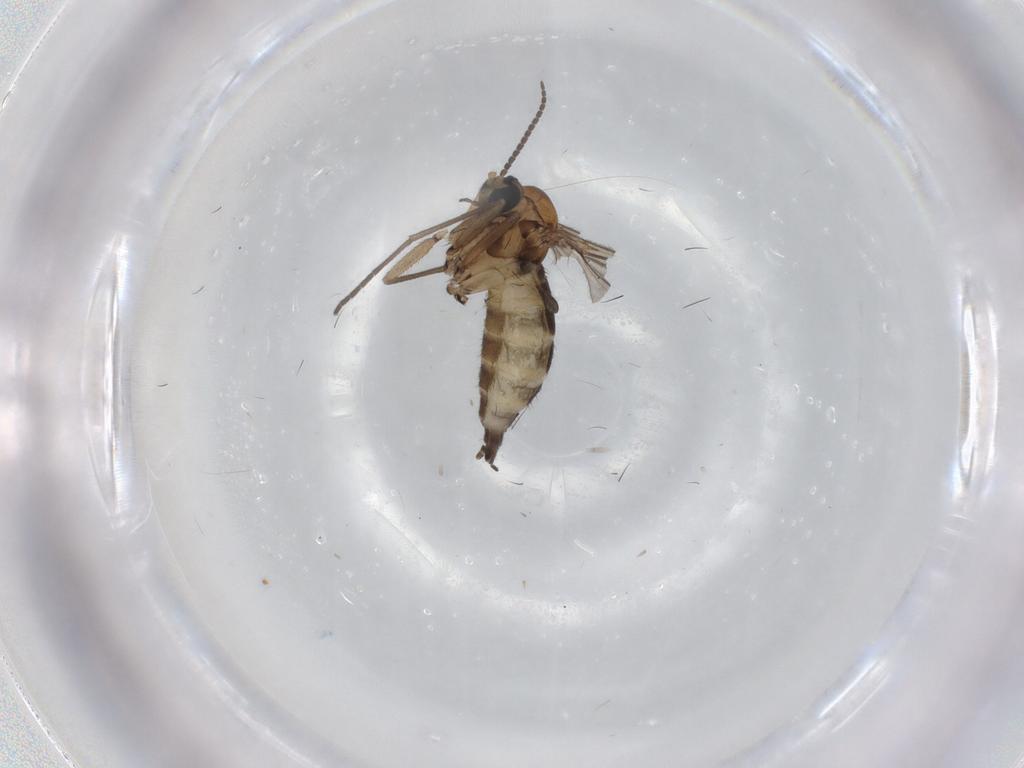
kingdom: Animalia
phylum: Arthropoda
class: Insecta
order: Diptera
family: Sciaridae
